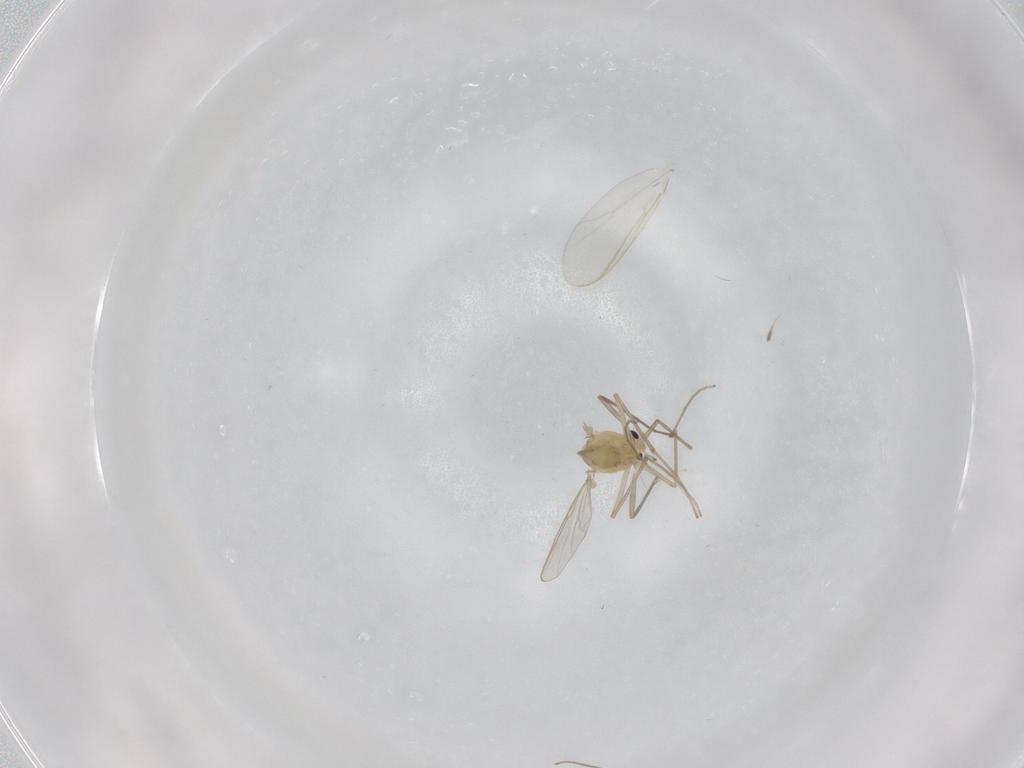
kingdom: Animalia
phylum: Arthropoda
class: Insecta
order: Diptera
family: Chironomidae
